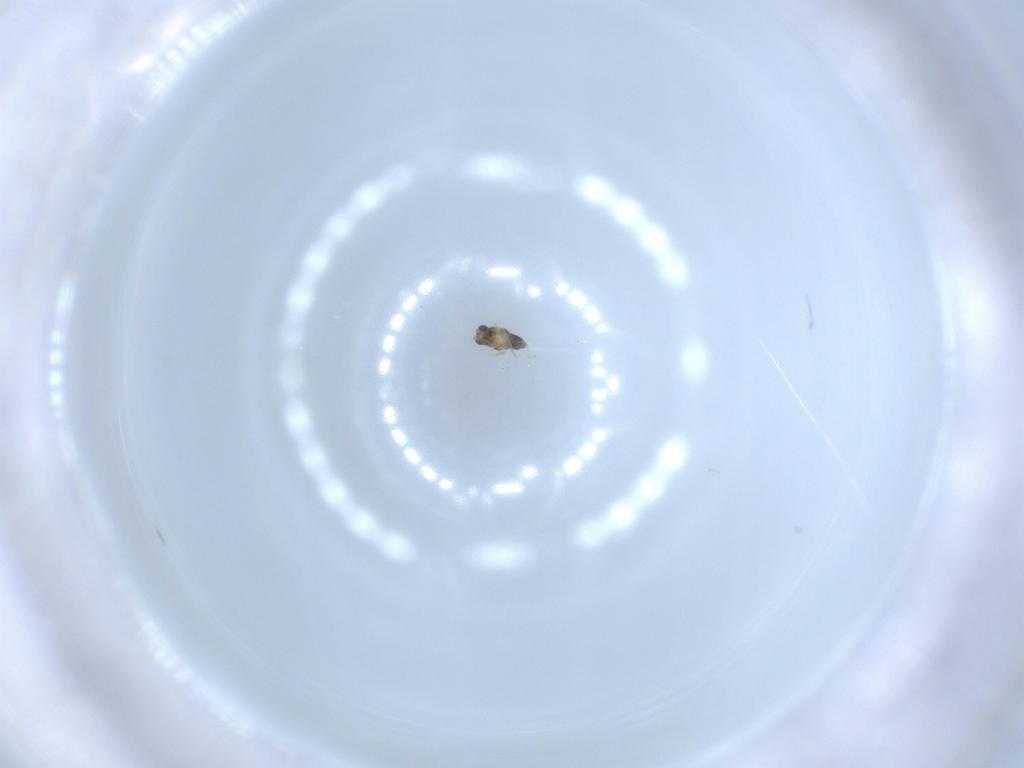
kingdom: Animalia
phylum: Arthropoda
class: Insecta
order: Hymenoptera
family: Aphelinidae
